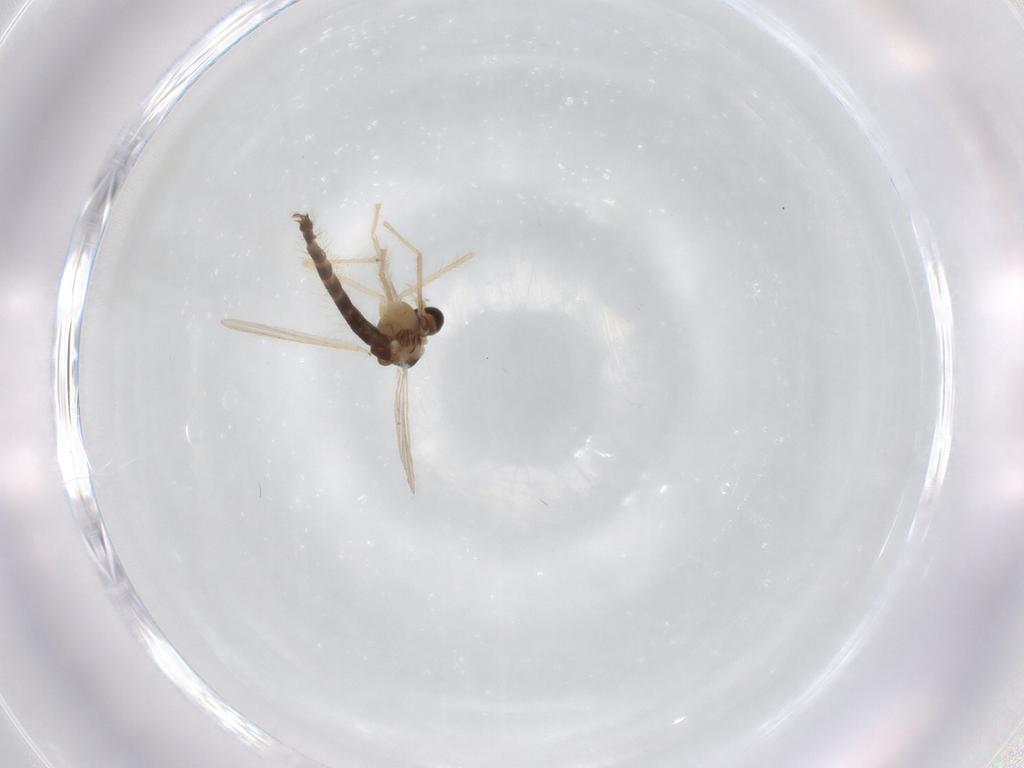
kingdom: Animalia
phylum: Arthropoda
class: Insecta
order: Diptera
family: Chironomidae
